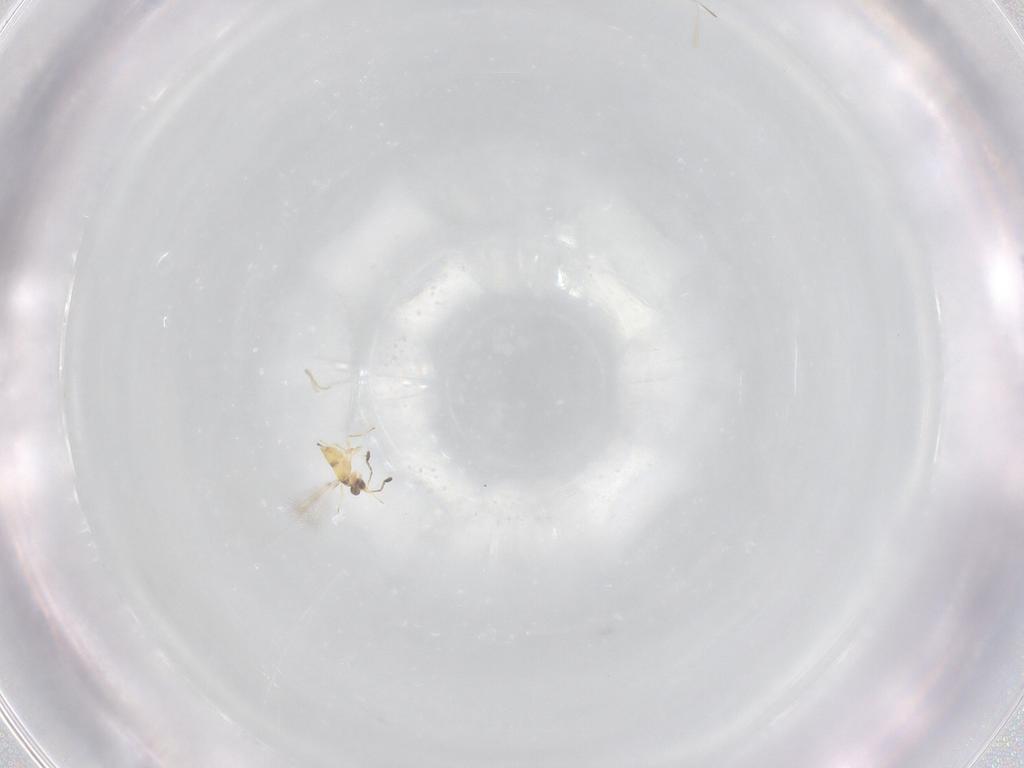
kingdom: Animalia
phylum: Arthropoda
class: Insecta
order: Hymenoptera
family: Mymaridae
